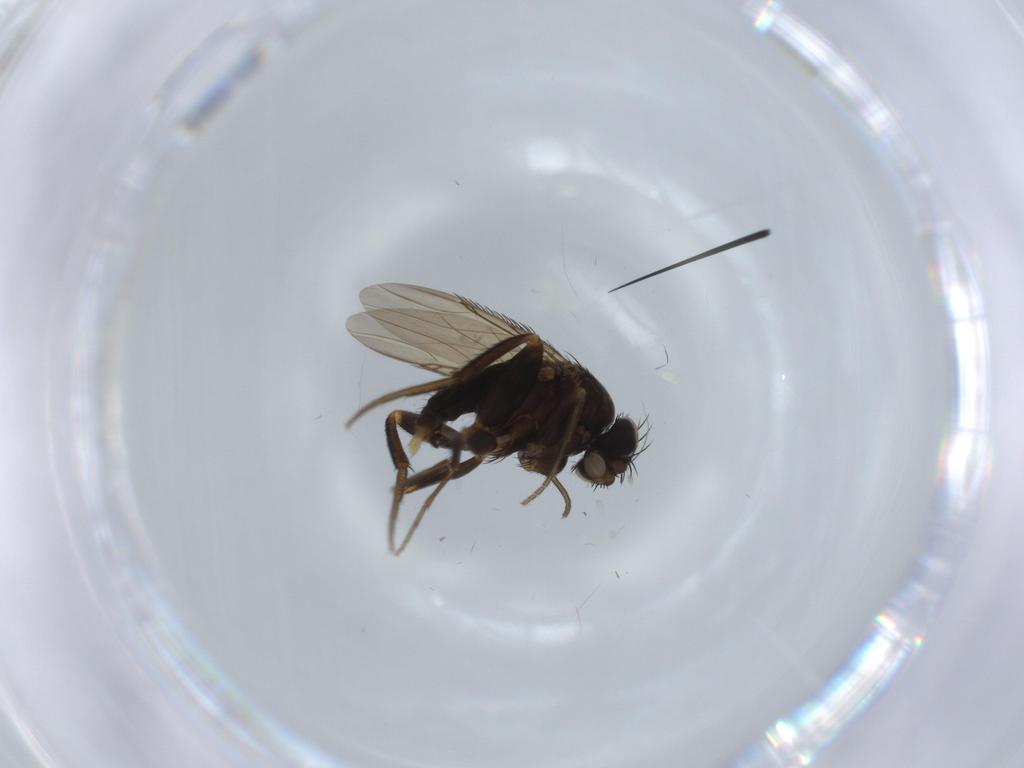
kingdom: Animalia
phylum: Arthropoda
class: Insecta
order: Diptera
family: Phoridae
